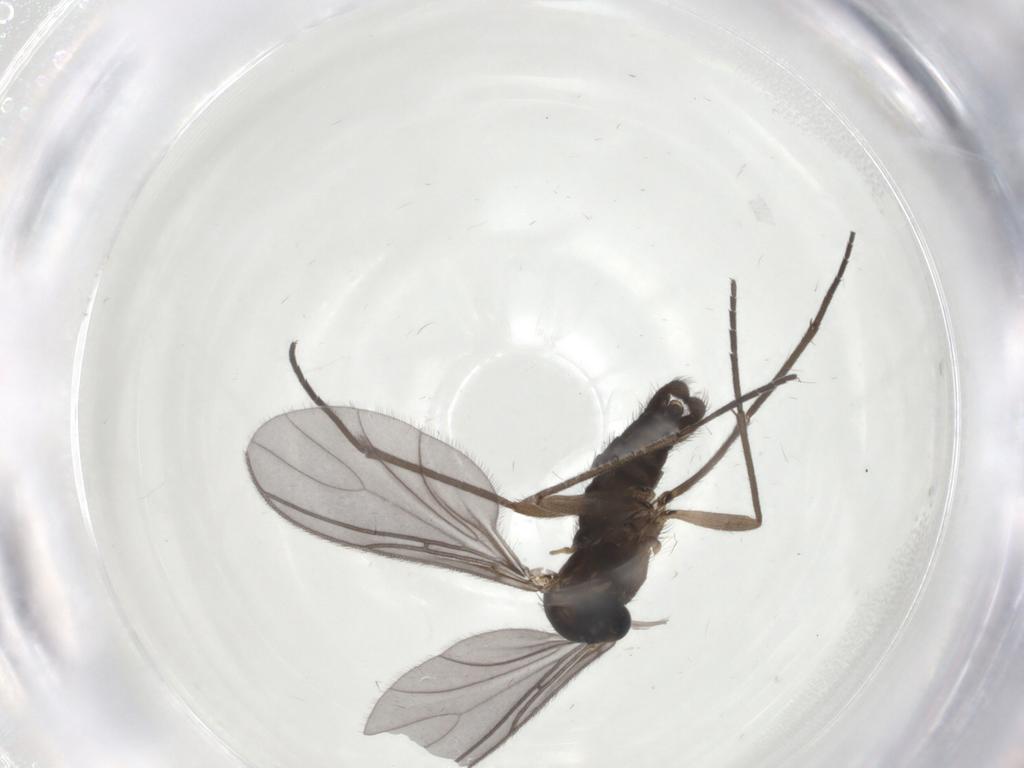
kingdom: Animalia
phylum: Arthropoda
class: Insecta
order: Diptera
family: Sciaridae
